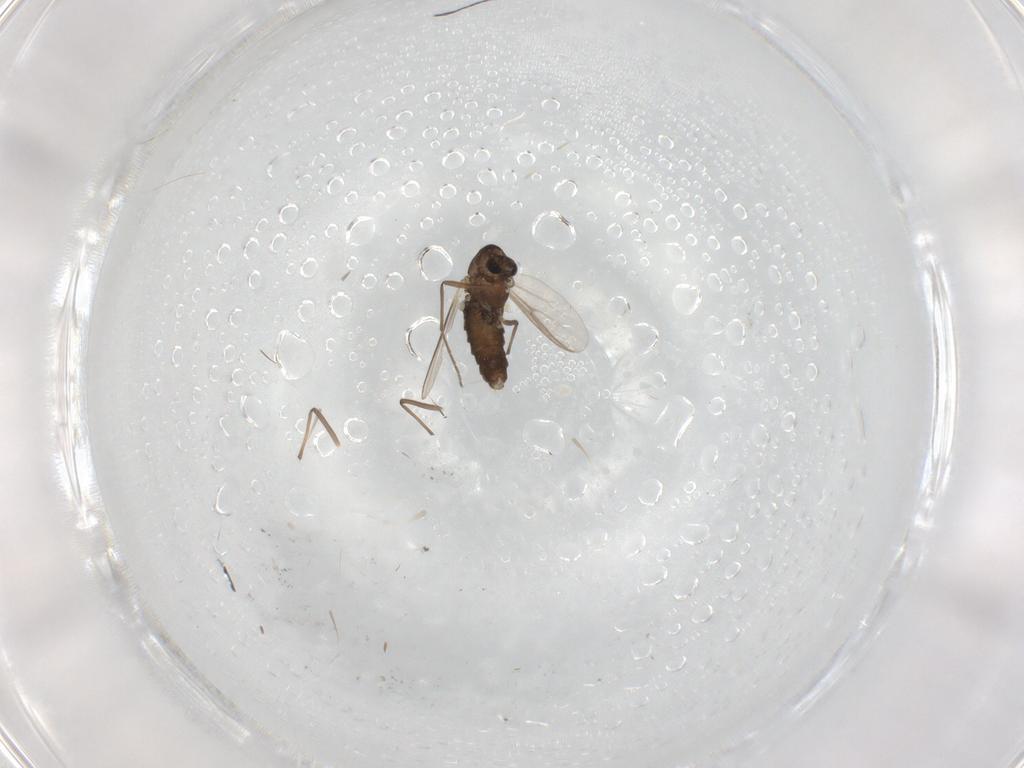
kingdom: Animalia
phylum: Arthropoda
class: Insecta
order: Diptera
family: Chironomidae
